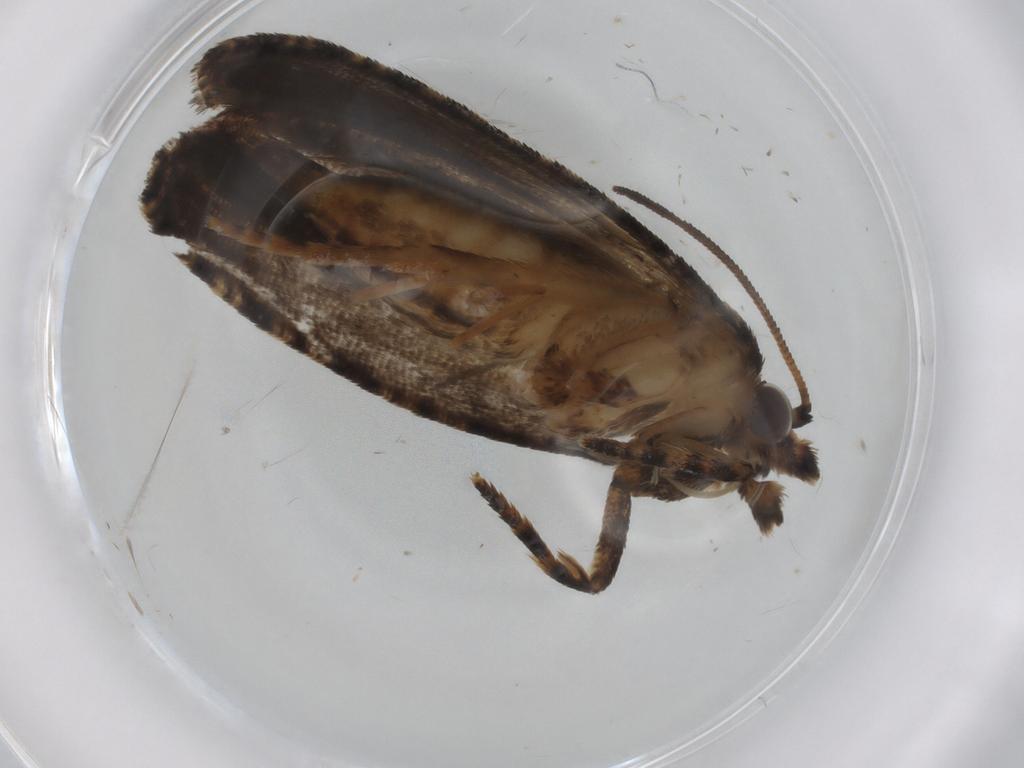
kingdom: Animalia
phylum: Arthropoda
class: Insecta
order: Lepidoptera
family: Tortricidae
